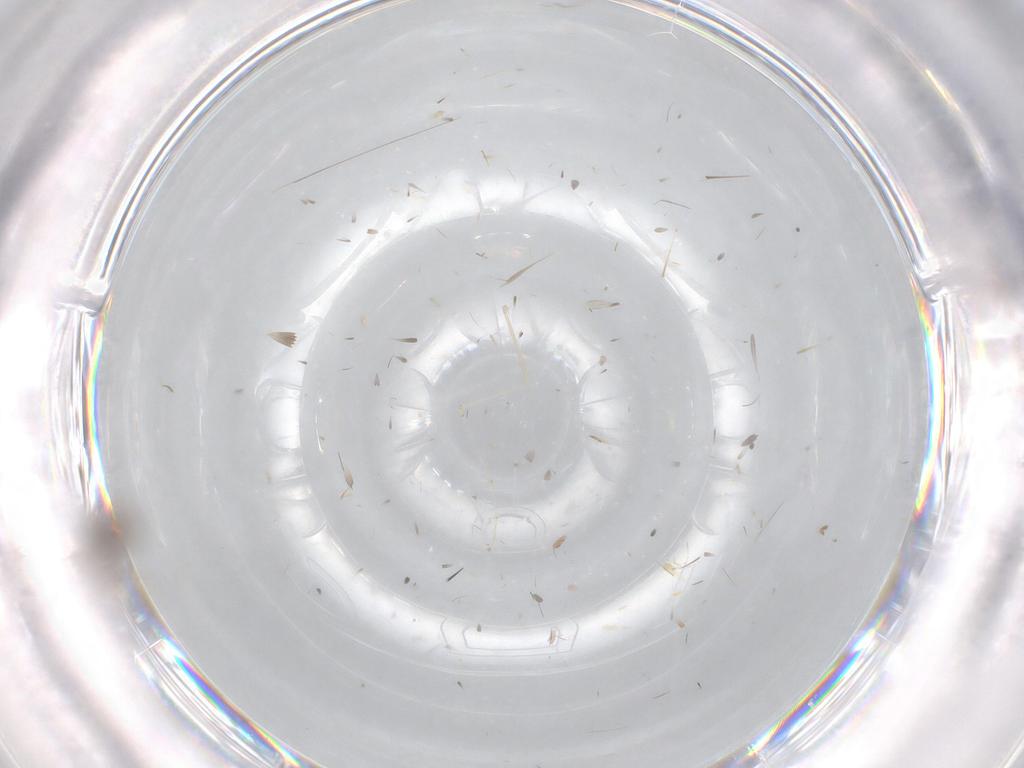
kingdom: Animalia
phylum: Arthropoda
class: Insecta
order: Diptera
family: Sciaridae
